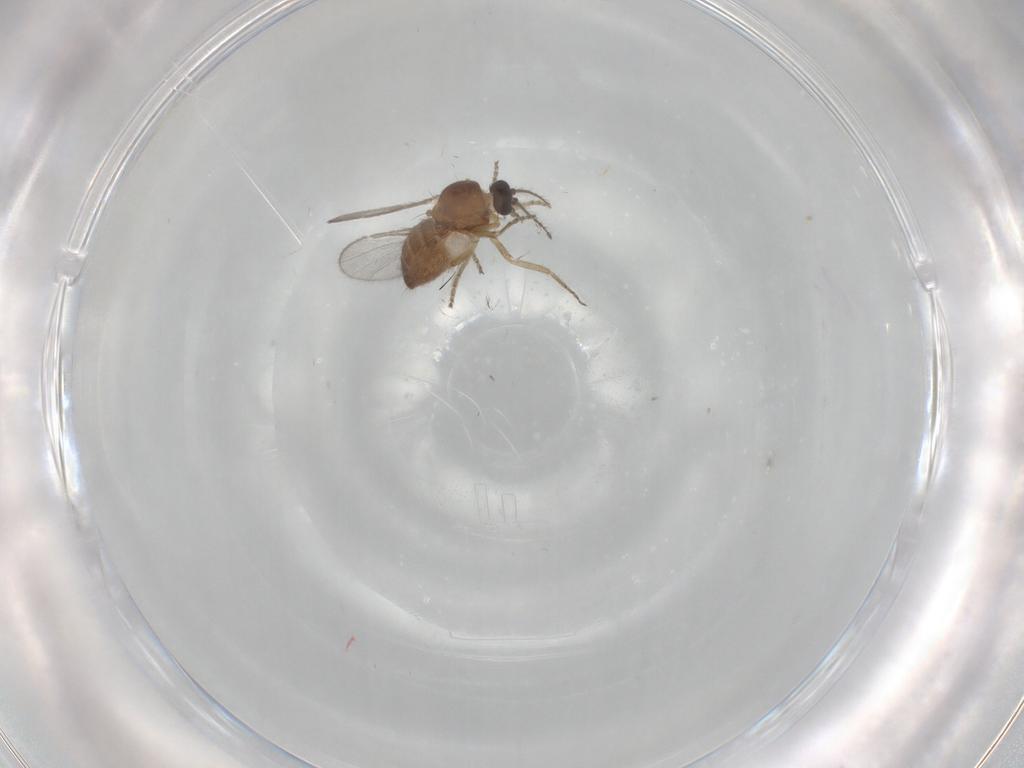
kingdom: Animalia
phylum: Arthropoda
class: Insecta
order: Diptera
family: Ceratopogonidae
